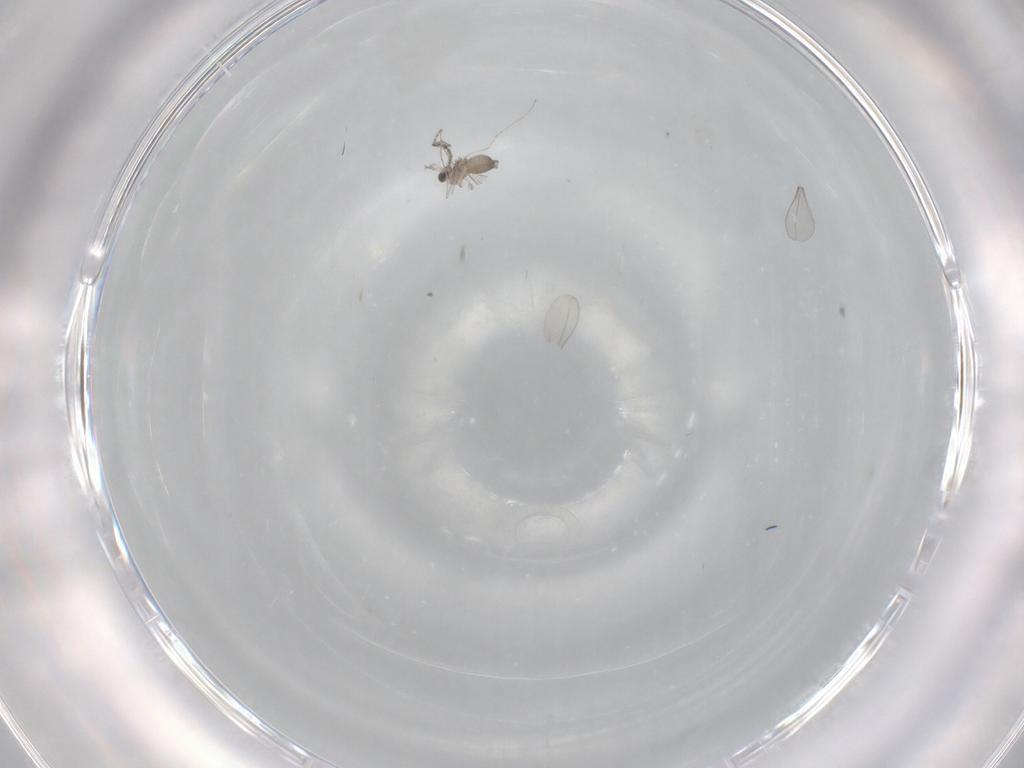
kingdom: Animalia
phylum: Arthropoda
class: Insecta
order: Diptera
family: Cecidomyiidae
